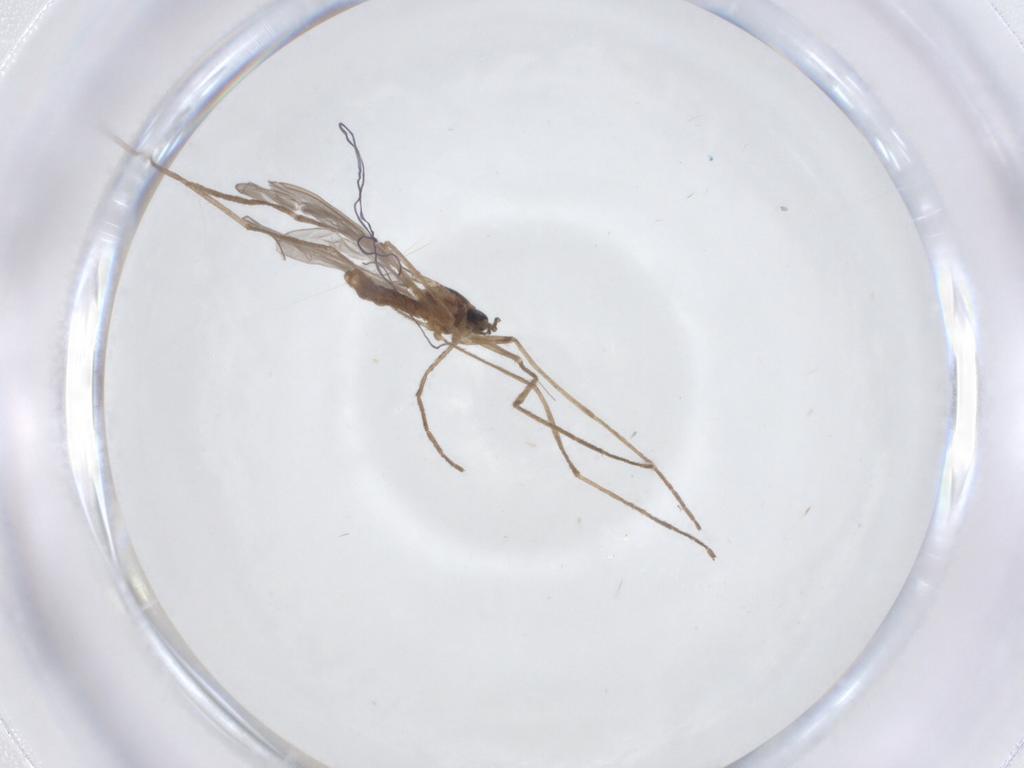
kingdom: Animalia
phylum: Arthropoda
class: Insecta
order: Diptera
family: Cecidomyiidae
